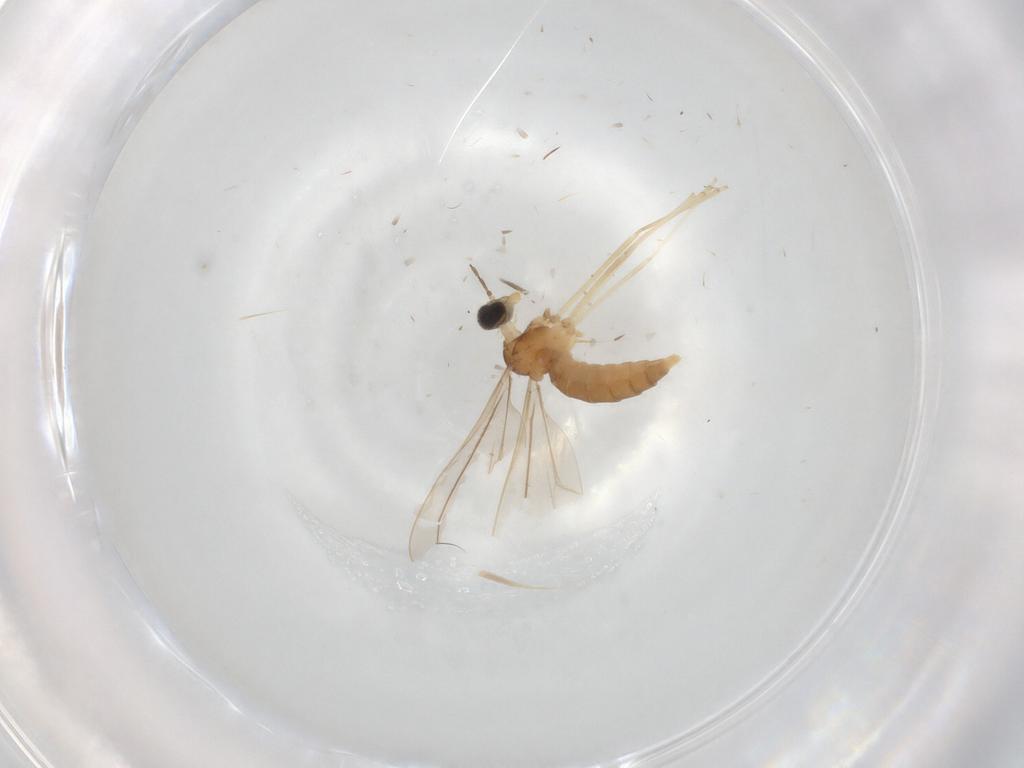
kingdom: Animalia
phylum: Arthropoda
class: Insecta
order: Diptera
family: Cecidomyiidae
